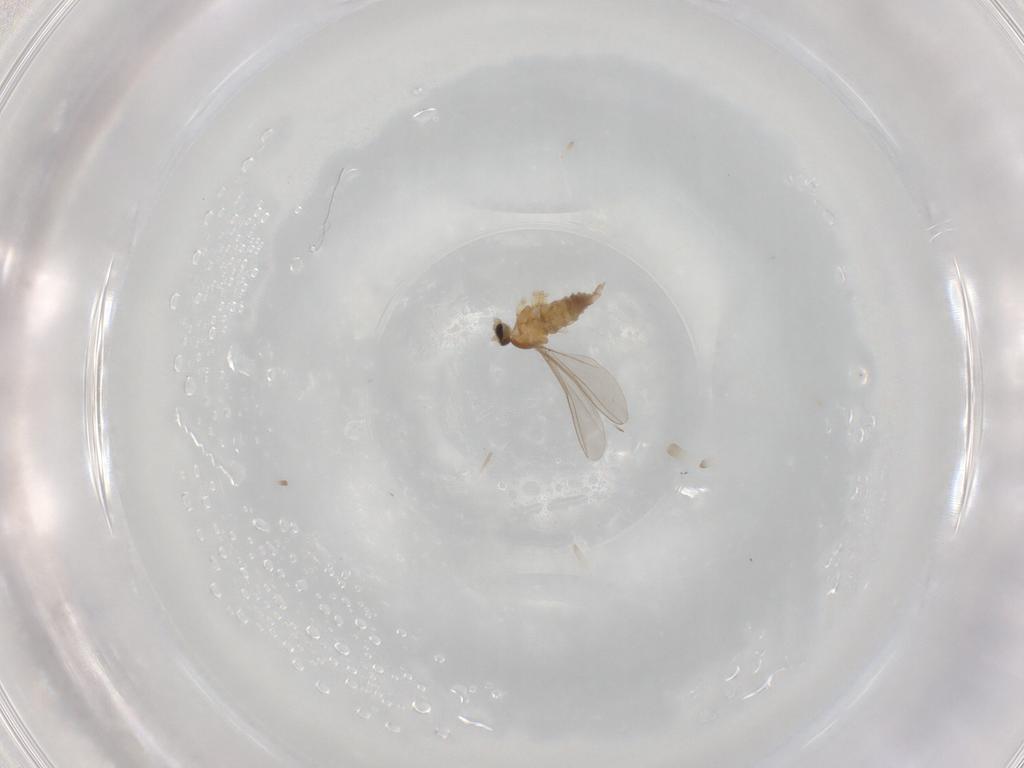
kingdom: Animalia
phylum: Arthropoda
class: Insecta
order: Diptera
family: Cecidomyiidae
